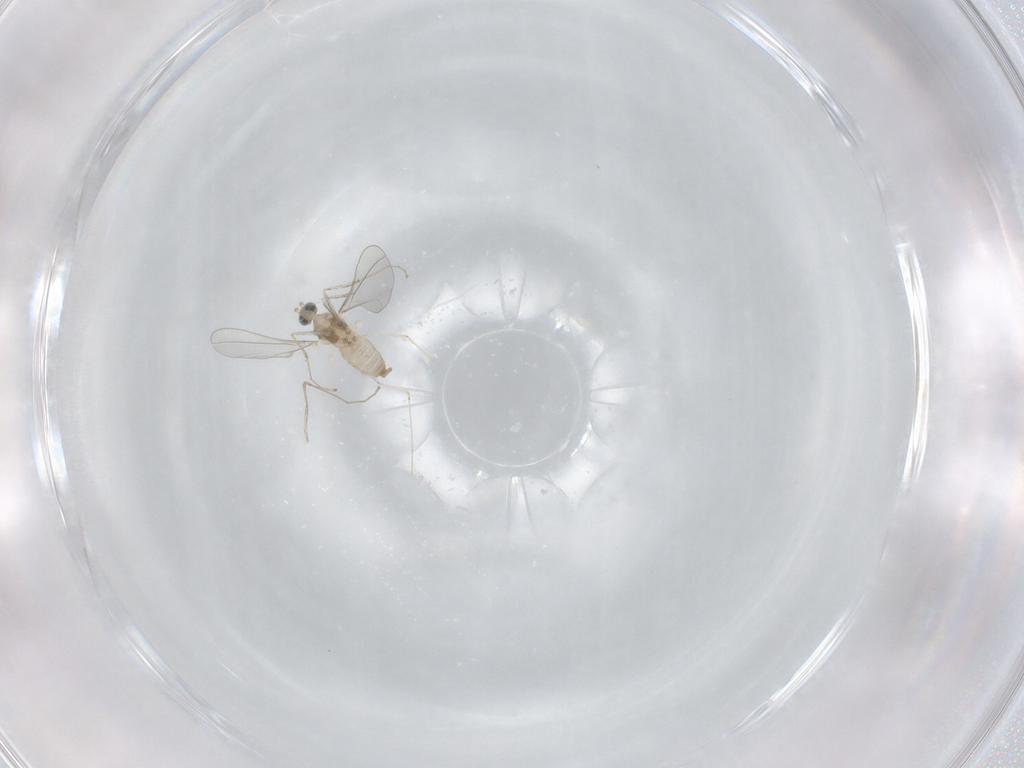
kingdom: Animalia
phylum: Arthropoda
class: Insecta
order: Diptera
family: Cecidomyiidae
